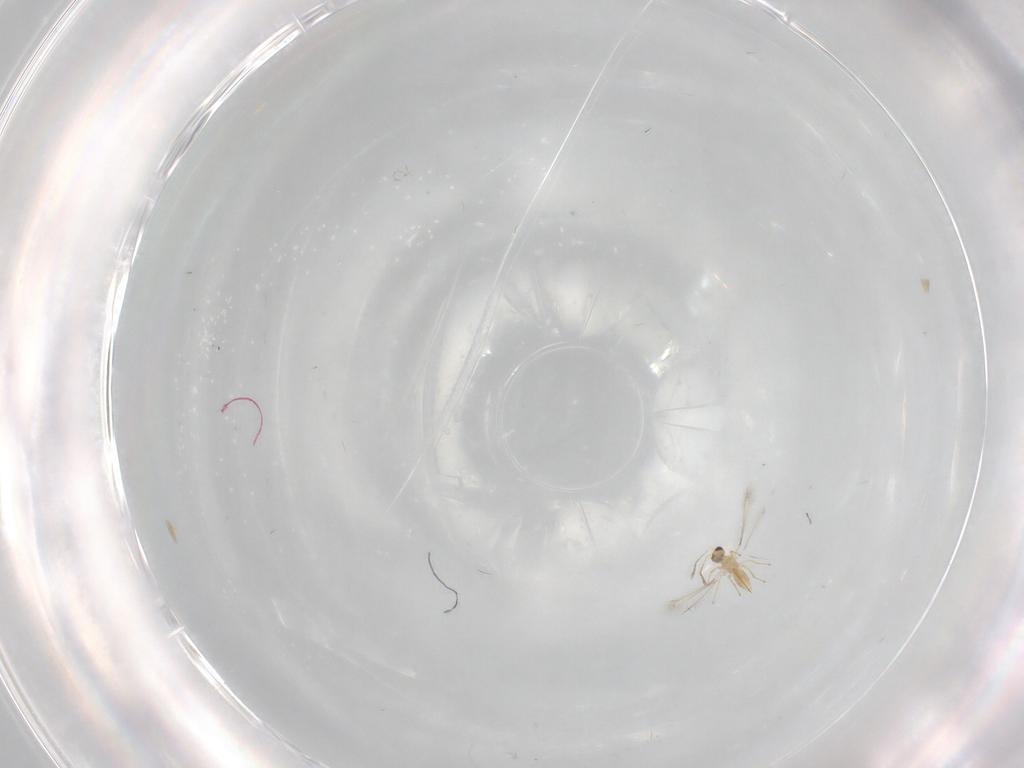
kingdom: Animalia
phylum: Arthropoda
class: Insecta
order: Hymenoptera
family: Mymaridae
